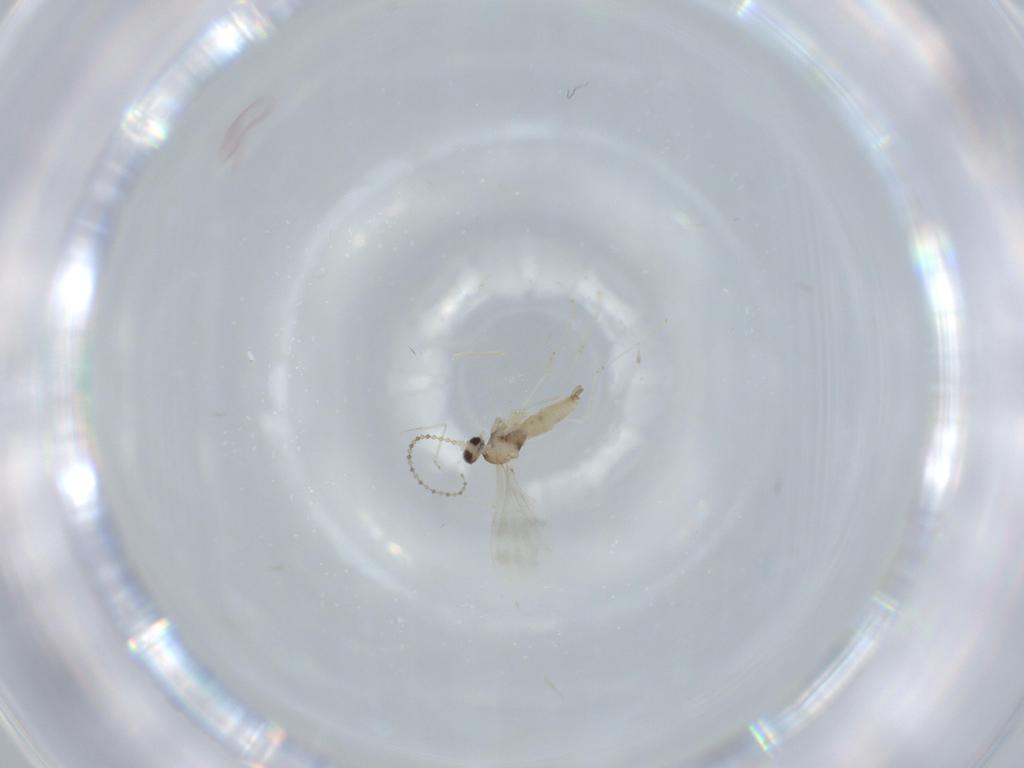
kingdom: Animalia
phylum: Arthropoda
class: Insecta
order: Diptera
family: Cecidomyiidae
